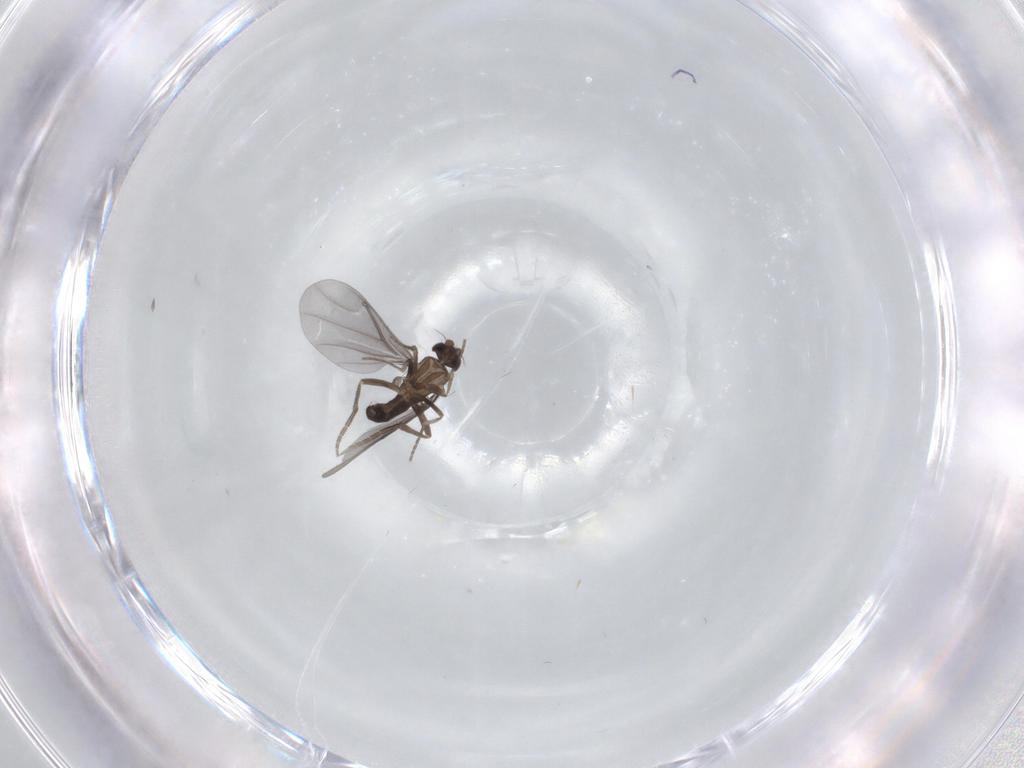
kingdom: Animalia
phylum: Arthropoda
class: Insecta
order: Diptera
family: Phoridae
